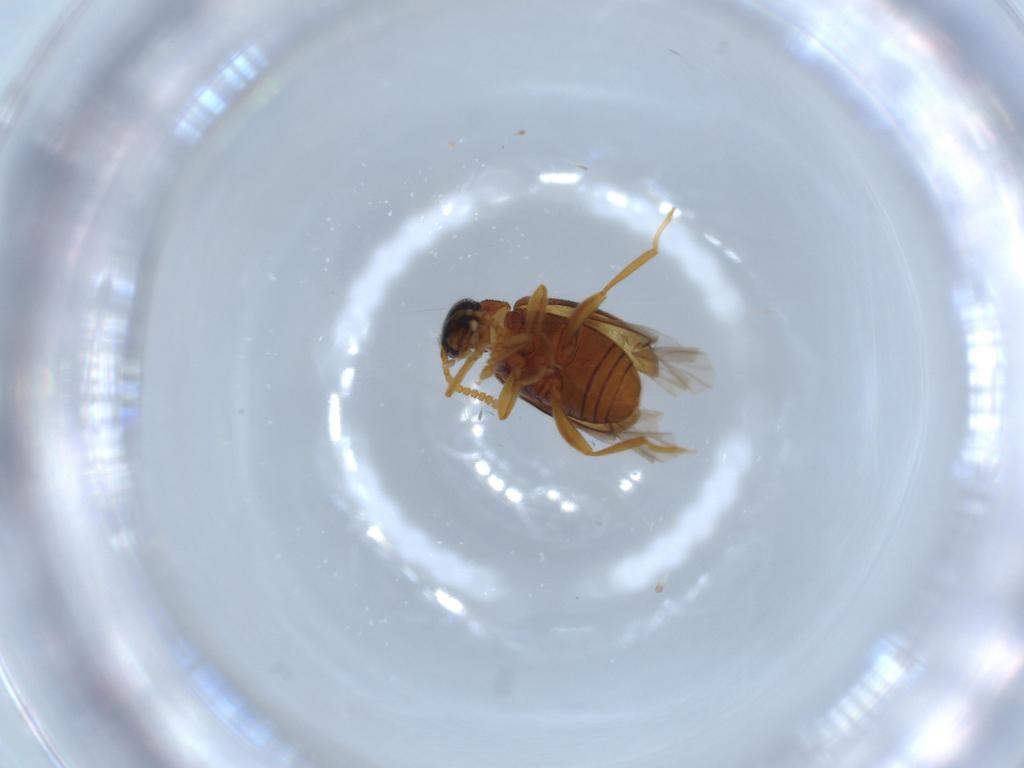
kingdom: Animalia
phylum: Arthropoda
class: Insecta
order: Coleoptera
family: Aderidae
